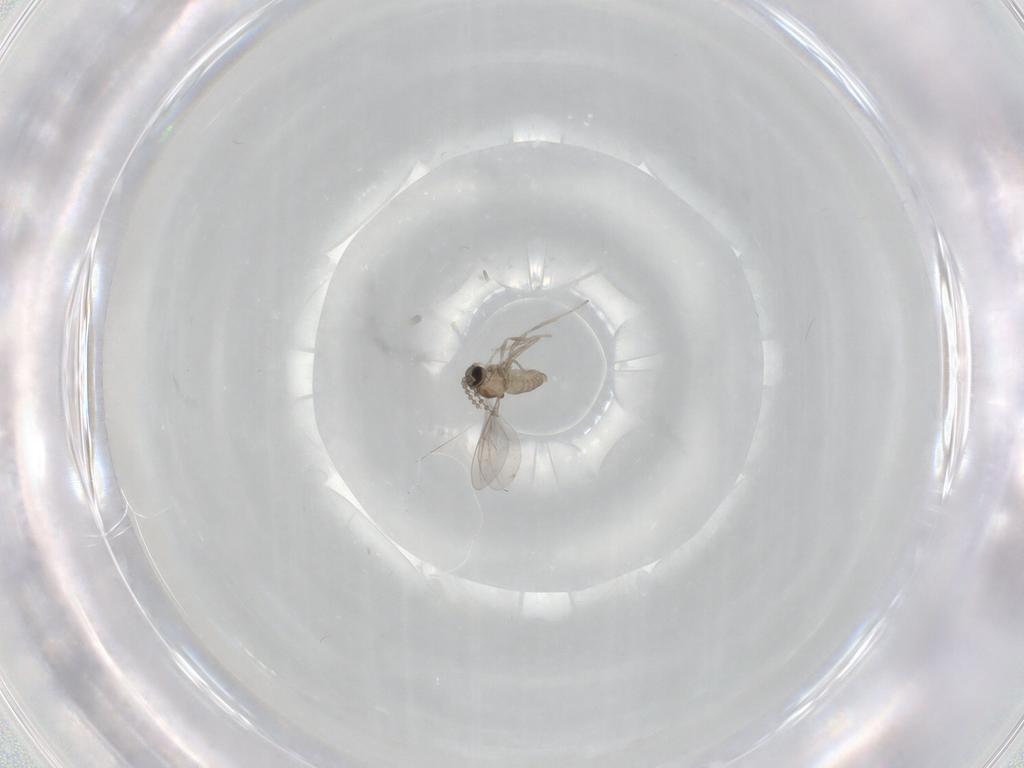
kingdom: Animalia
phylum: Arthropoda
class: Insecta
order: Diptera
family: Cecidomyiidae
